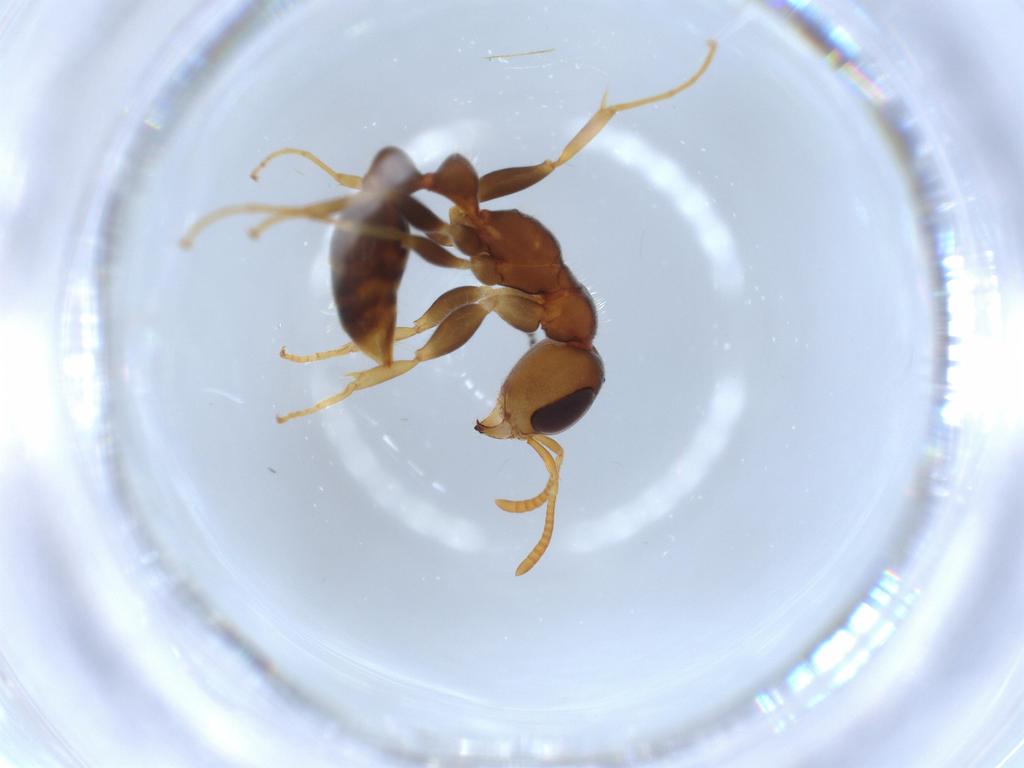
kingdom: Animalia
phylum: Arthropoda
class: Insecta
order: Hymenoptera
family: Formicidae
